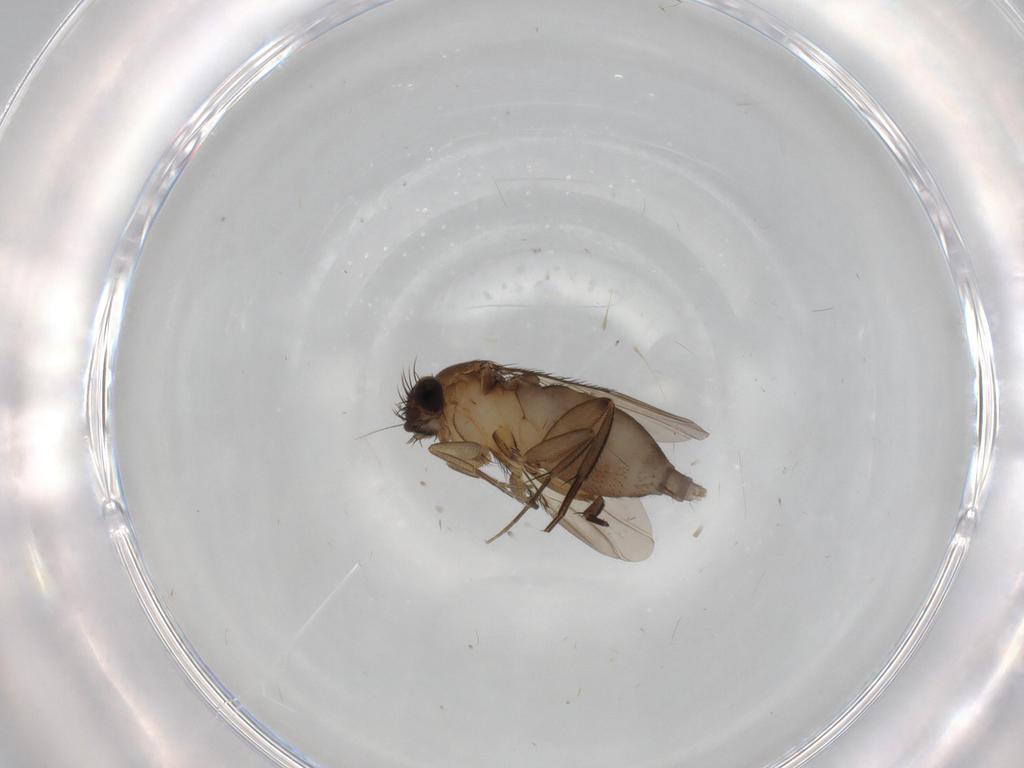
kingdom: Animalia
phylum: Arthropoda
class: Insecta
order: Diptera
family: Phoridae
